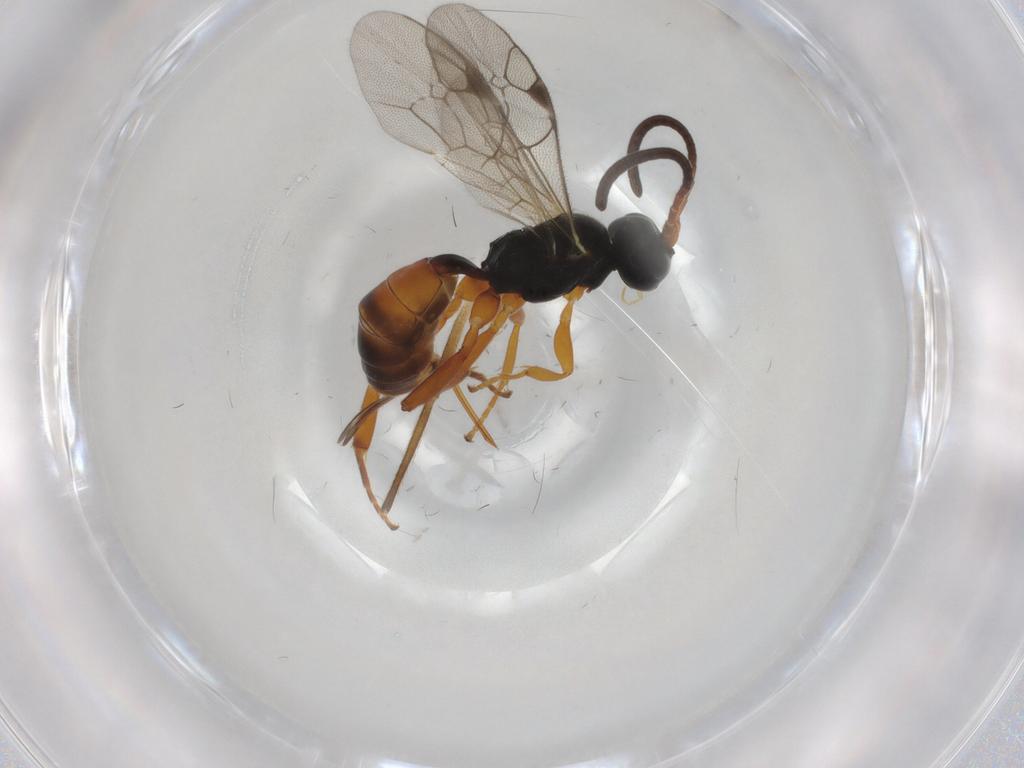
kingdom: Animalia
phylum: Arthropoda
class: Insecta
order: Hymenoptera
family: Ichneumonidae
